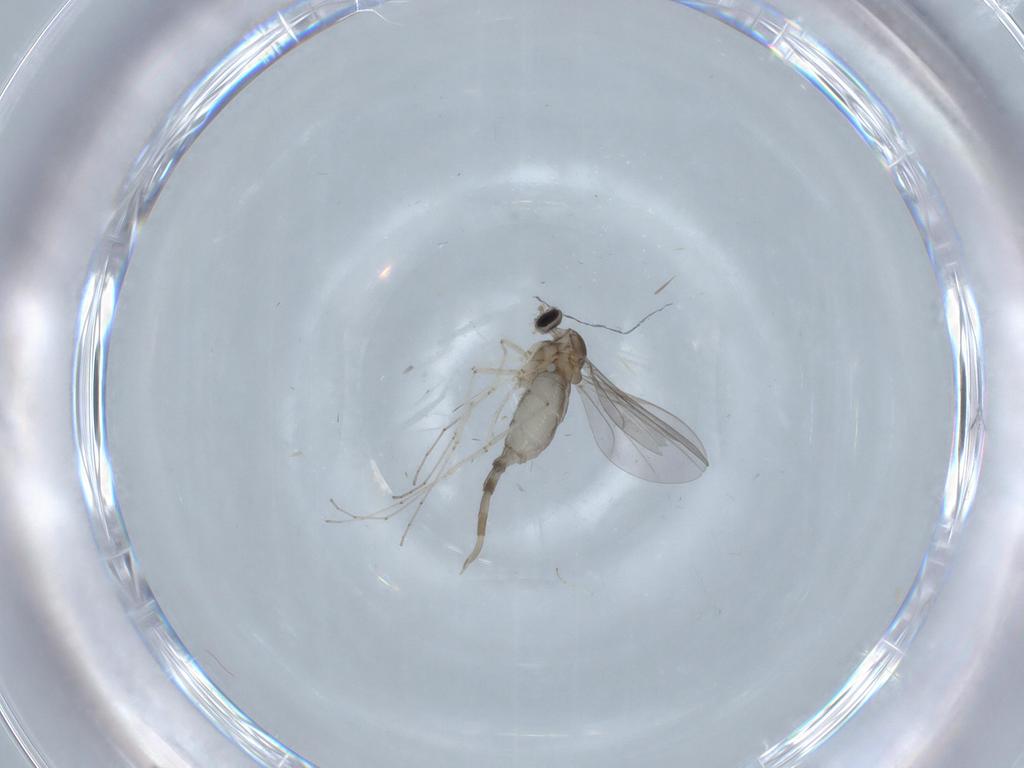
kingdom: Animalia
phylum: Arthropoda
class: Insecta
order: Diptera
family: Cecidomyiidae
